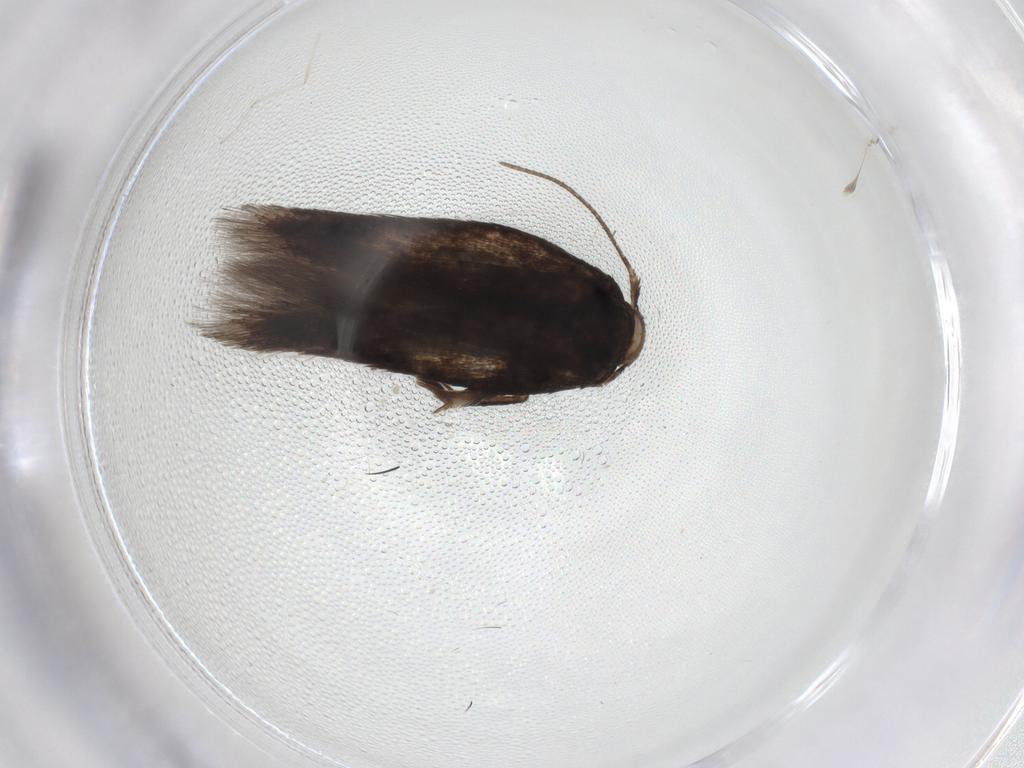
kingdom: Animalia
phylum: Arthropoda
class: Insecta
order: Lepidoptera
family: Cosmopterigidae
